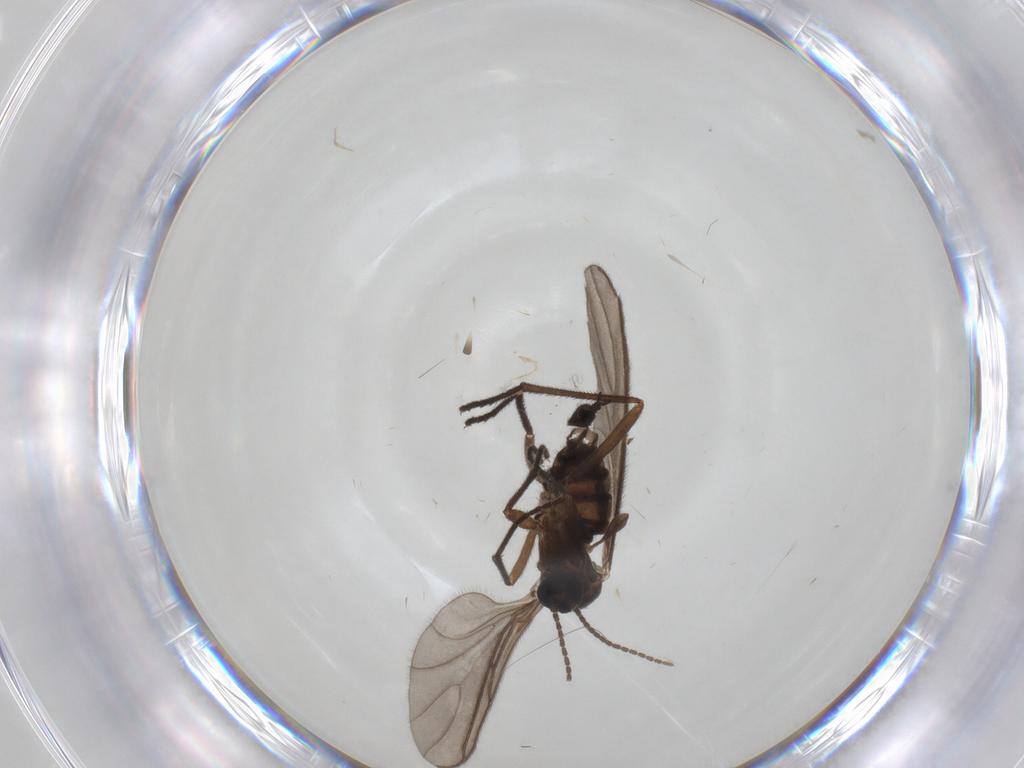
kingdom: Animalia
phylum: Arthropoda
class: Insecta
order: Diptera
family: Sciaridae
